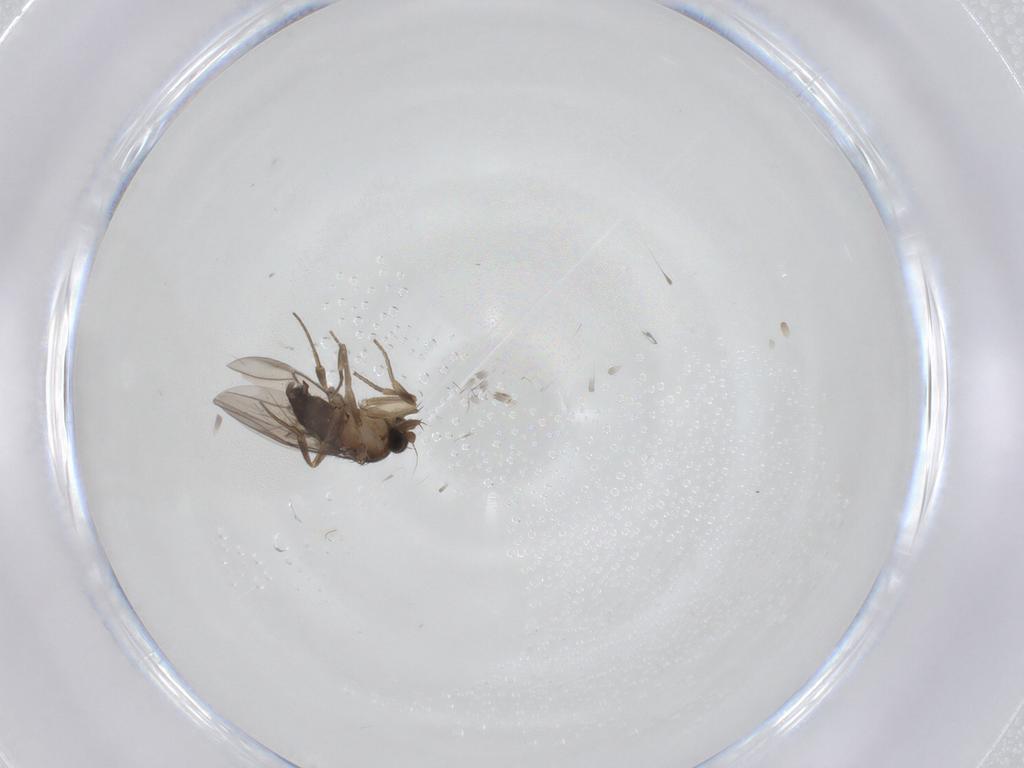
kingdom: Animalia
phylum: Arthropoda
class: Insecta
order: Diptera
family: Phoridae
